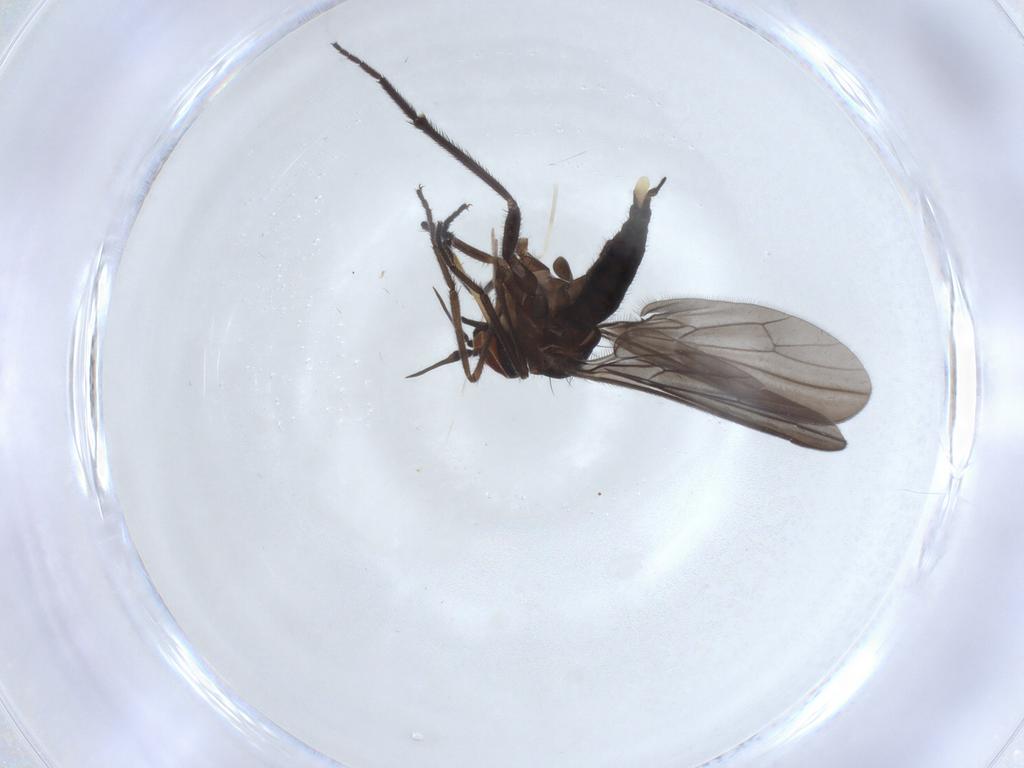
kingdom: Animalia
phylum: Arthropoda
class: Insecta
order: Diptera
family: Empididae
